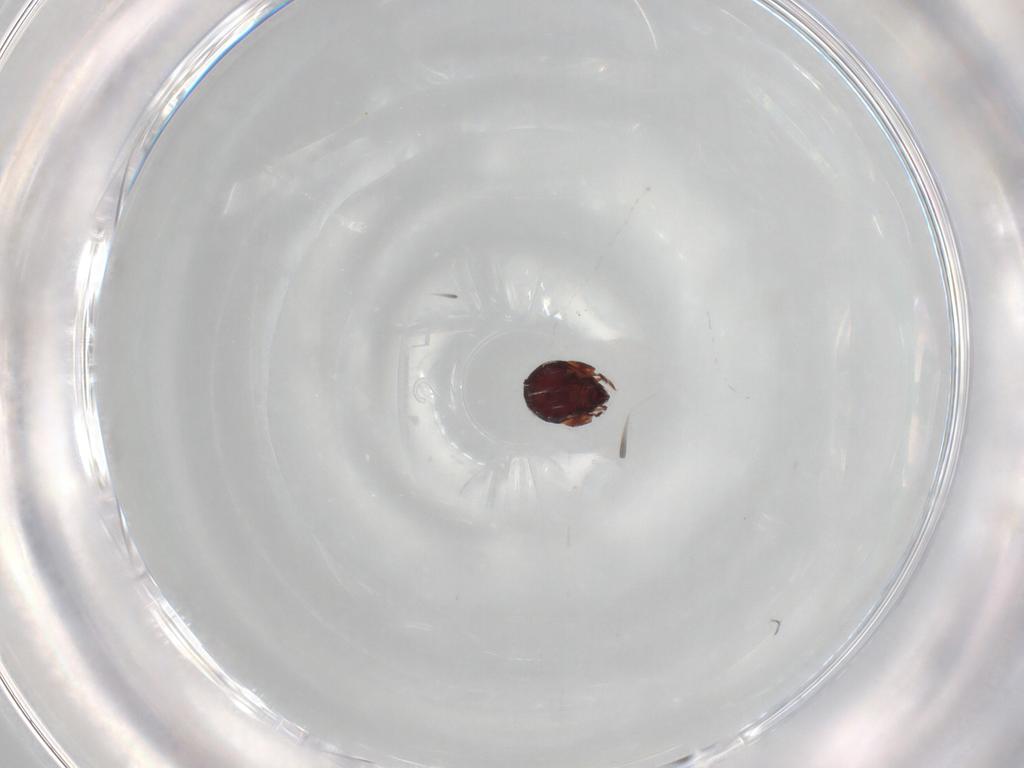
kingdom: Animalia
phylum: Arthropoda
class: Arachnida
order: Sarcoptiformes
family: Humerobatidae
